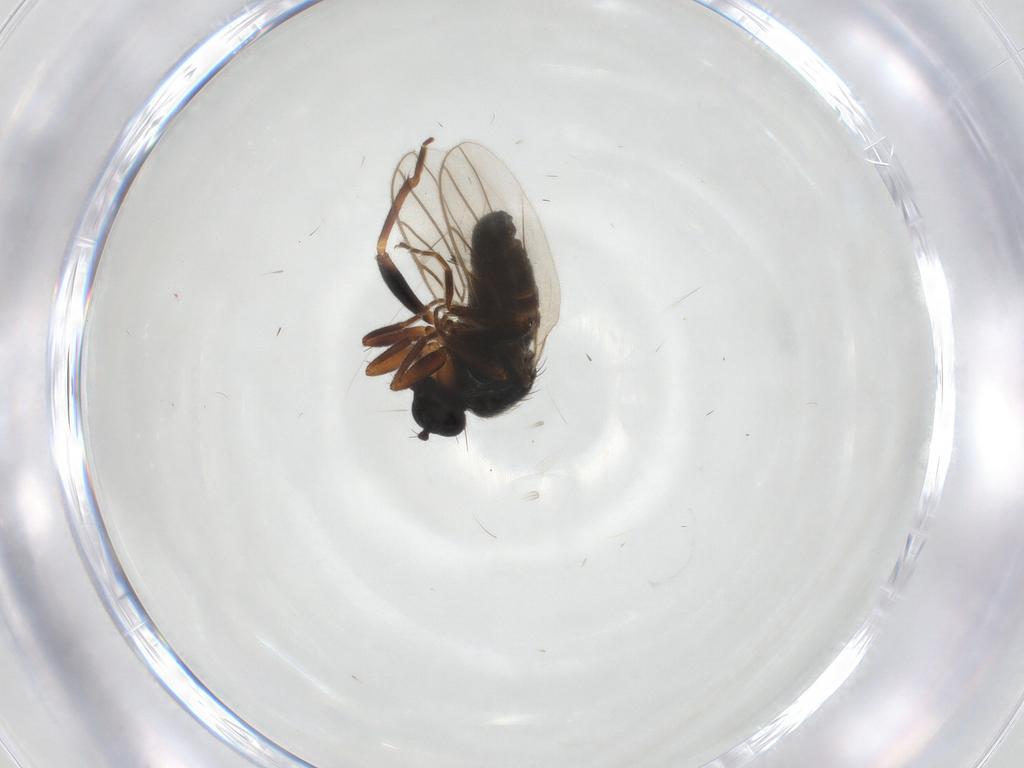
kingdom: Animalia
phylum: Arthropoda
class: Insecta
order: Diptera
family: Hybotidae
